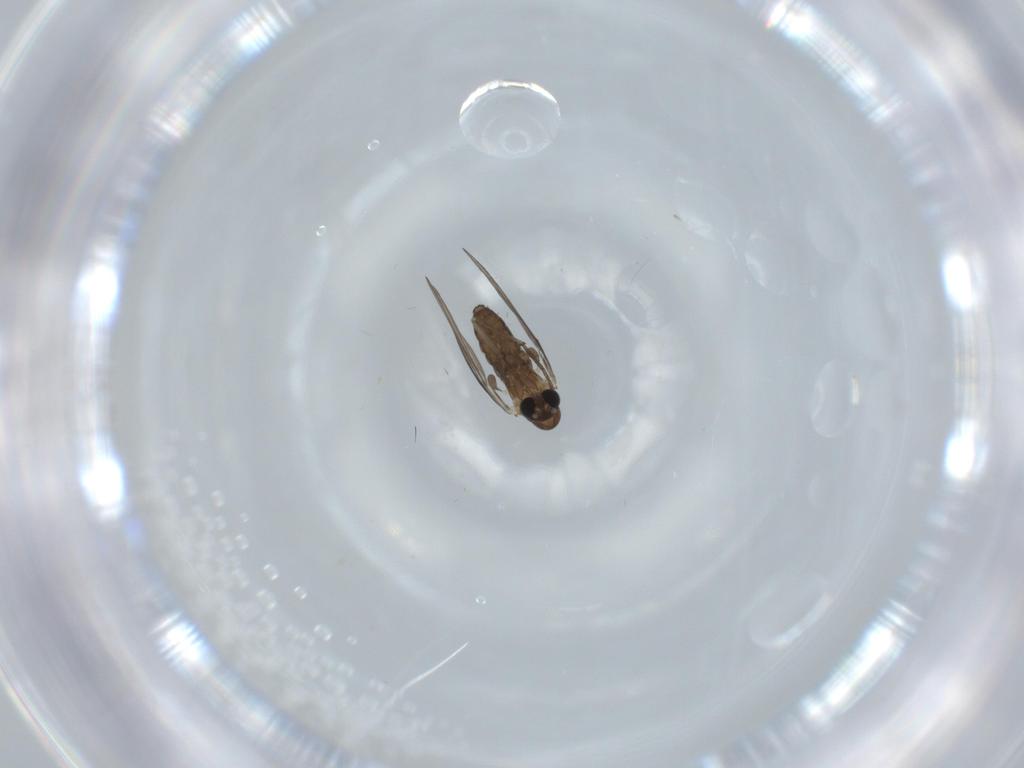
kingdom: Animalia
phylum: Arthropoda
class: Insecta
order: Diptera
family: Psychodidae
